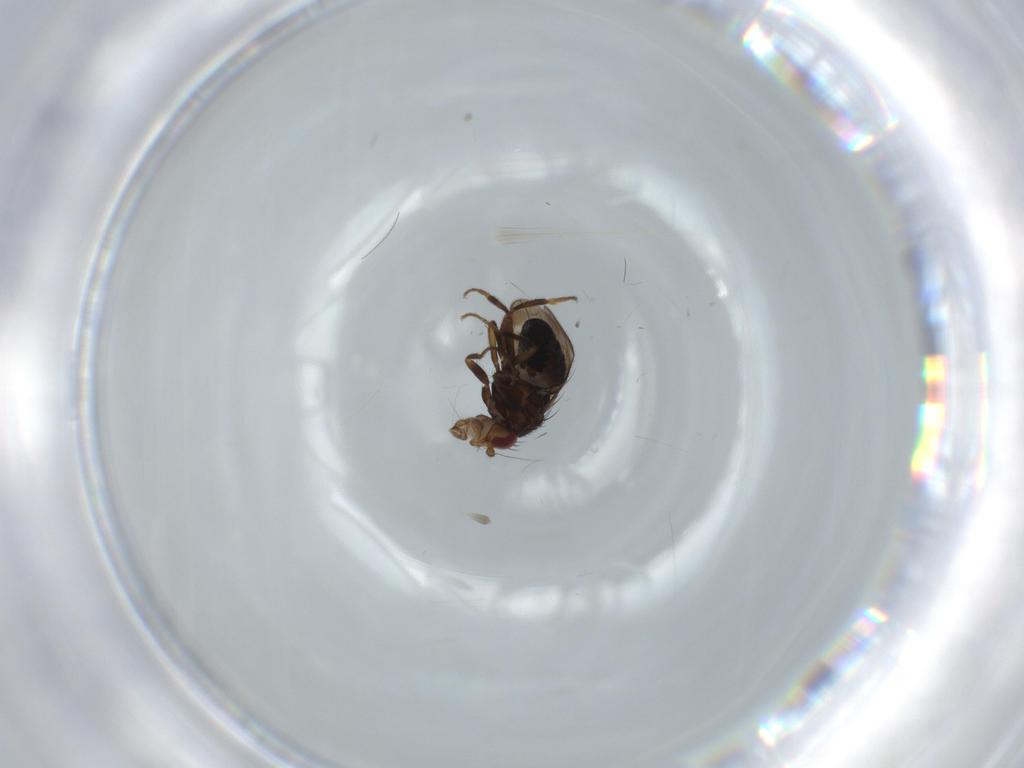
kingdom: Animalia
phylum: Arthropoda
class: Insecta
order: Diptera
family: Sphaeroceridae
